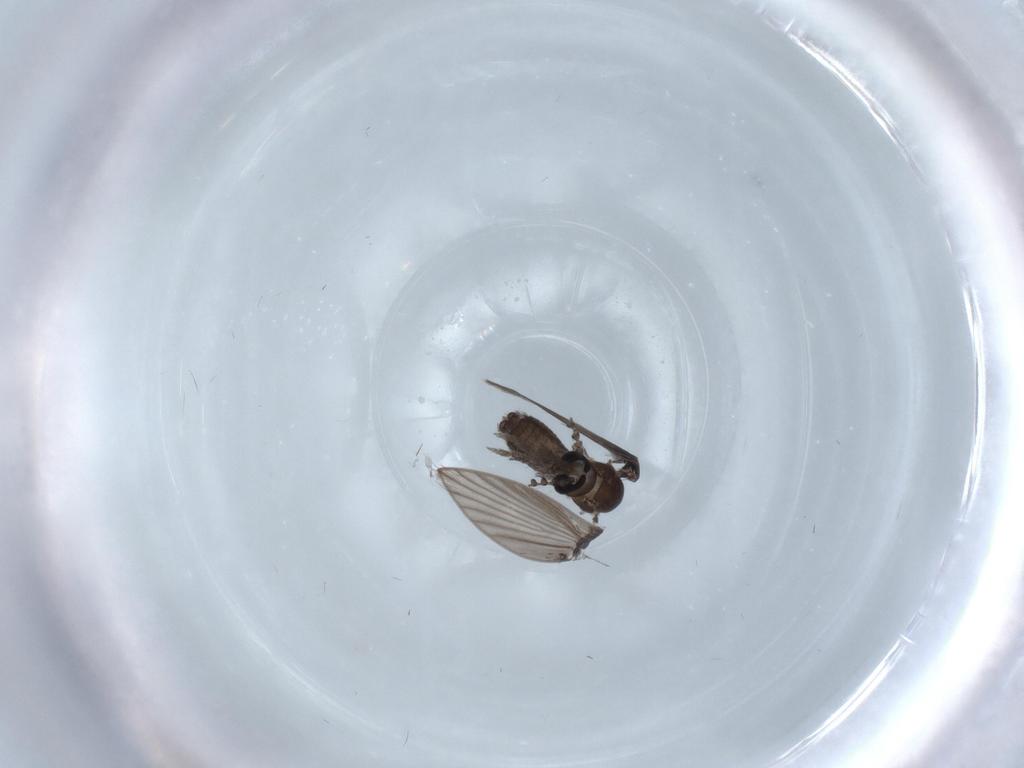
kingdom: Animalia
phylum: Arthropoda
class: Insecta
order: Diptera
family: Psychodidae
